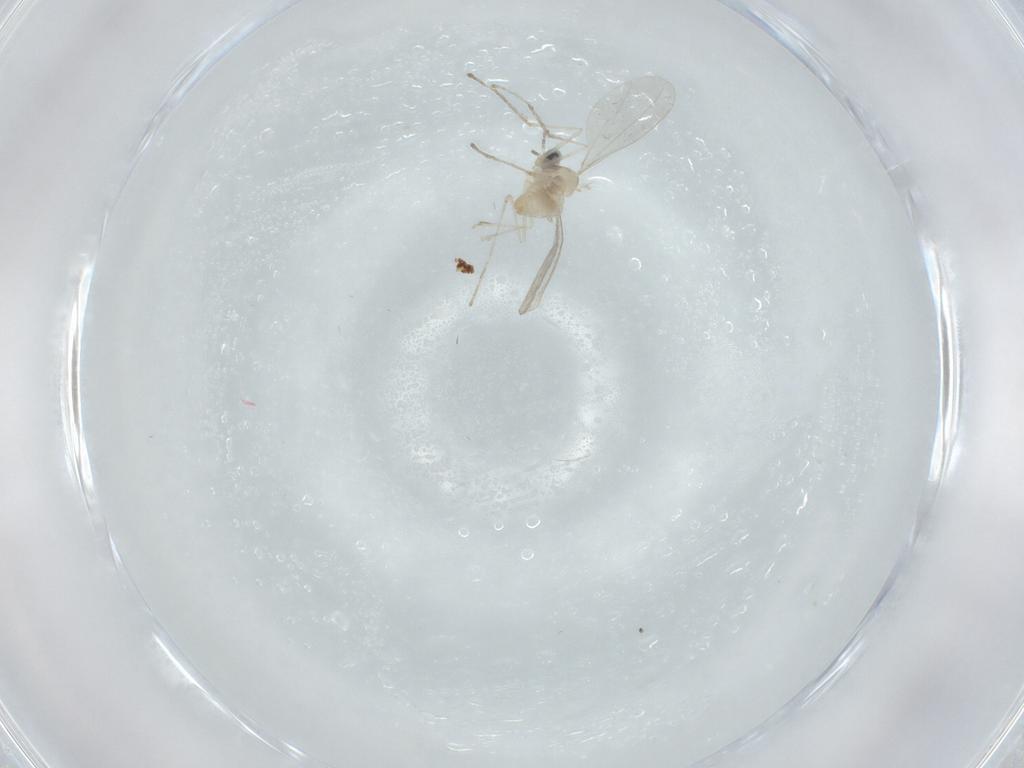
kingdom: Animalia
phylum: Arthropoda
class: Insecta
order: Diptera
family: Cecidomyiidae
